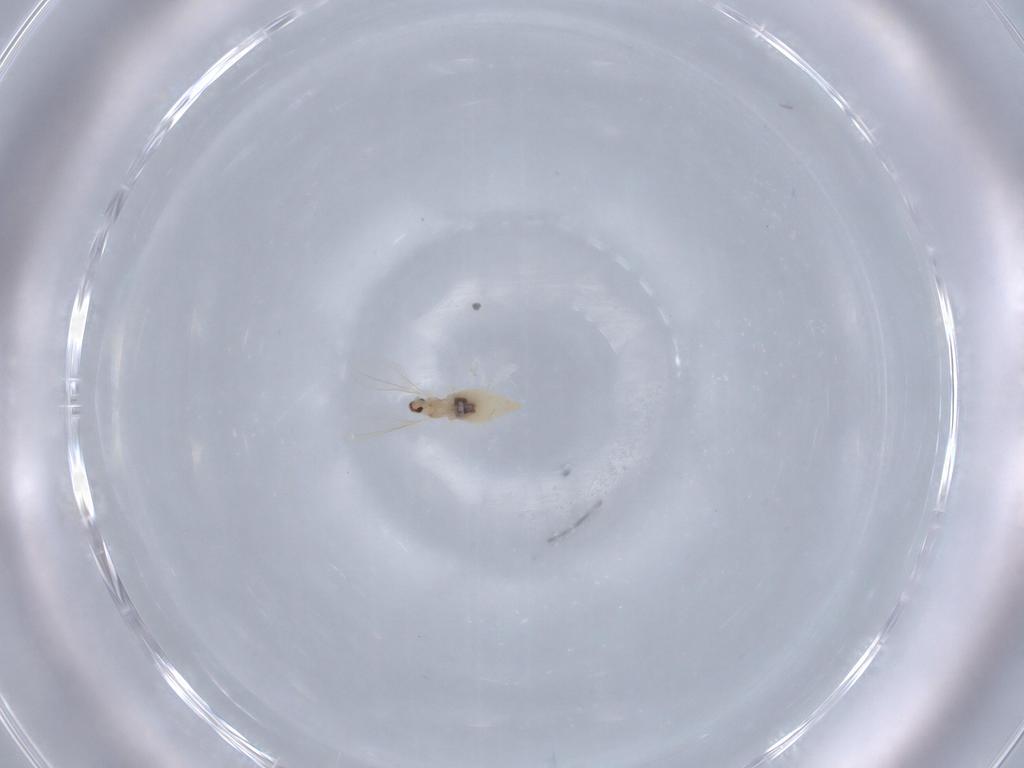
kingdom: Animalia
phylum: Arthropoda
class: Insecta
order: Diptera
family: Cecidomyiidae
